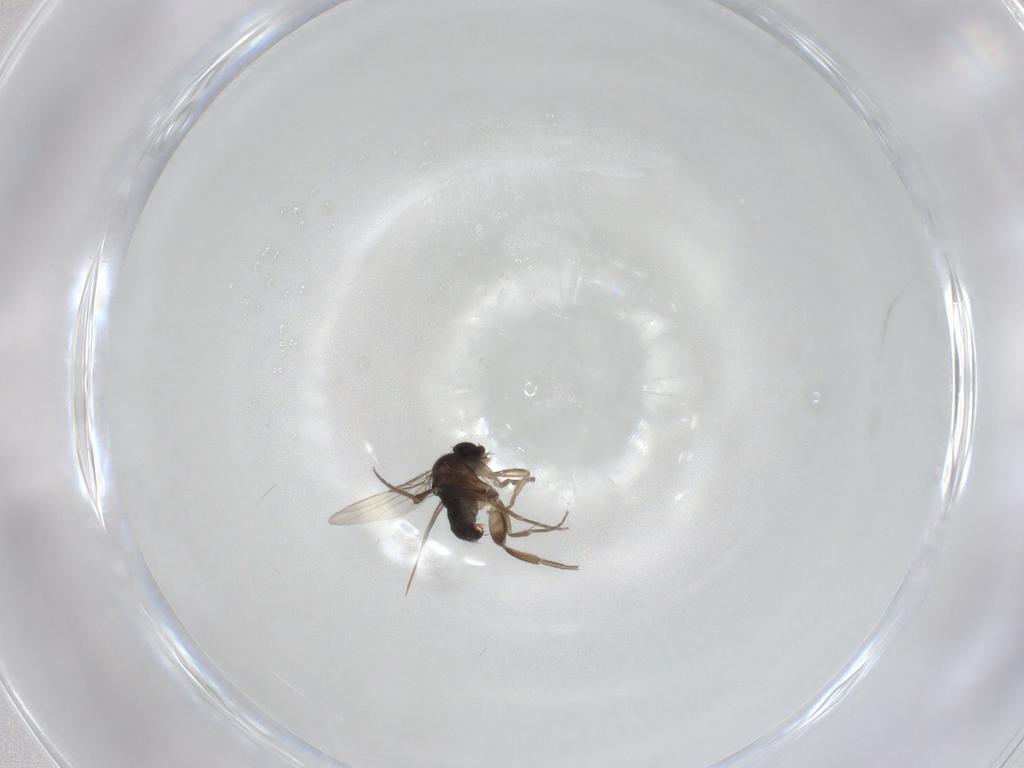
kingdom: Animalia
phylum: Arthropoda
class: Insecta
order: Diptera
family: Phoridae
